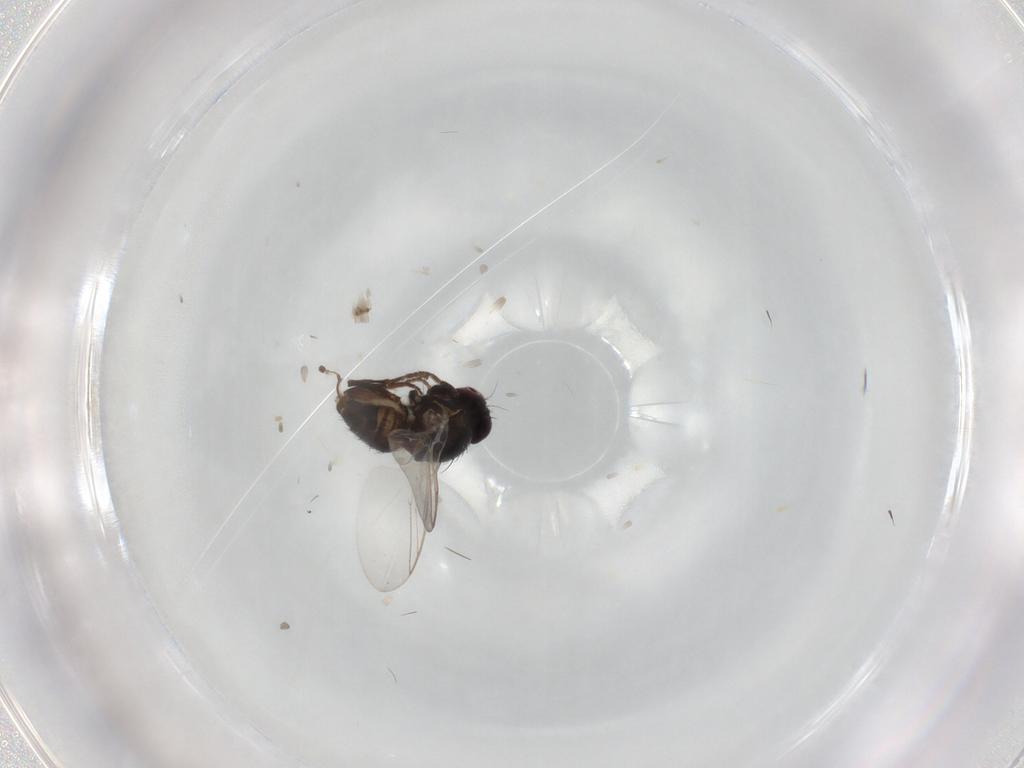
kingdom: Animalia
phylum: Arthropoda
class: Insecta
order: Diptera
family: Agromyzidae
